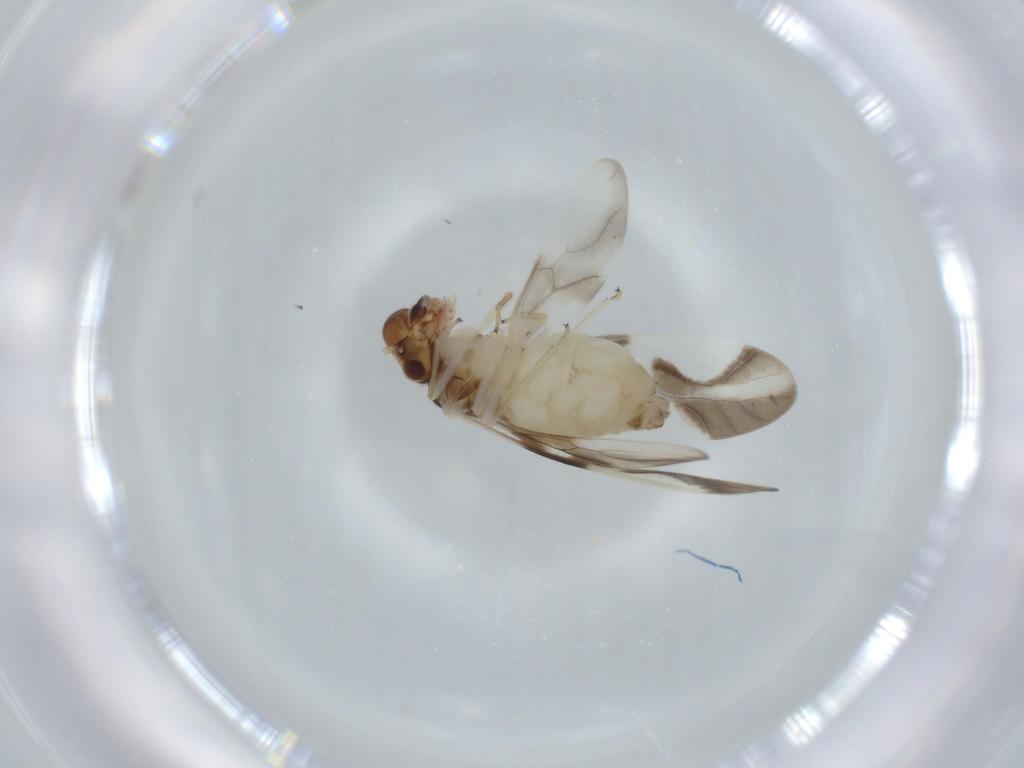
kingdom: Animalia
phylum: Arthropoda
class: Insecta
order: Psocodea
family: Caeciliusidae
